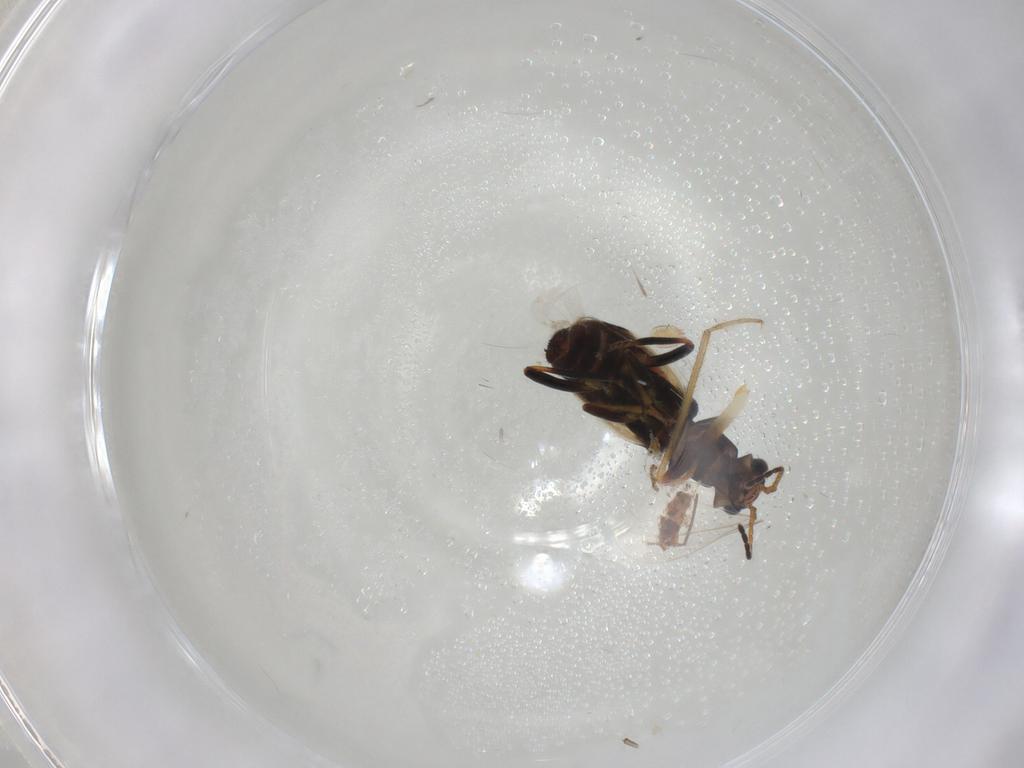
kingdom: Animalia
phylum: Arthropoda
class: Insecta
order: Coleoptera
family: Melyridae
